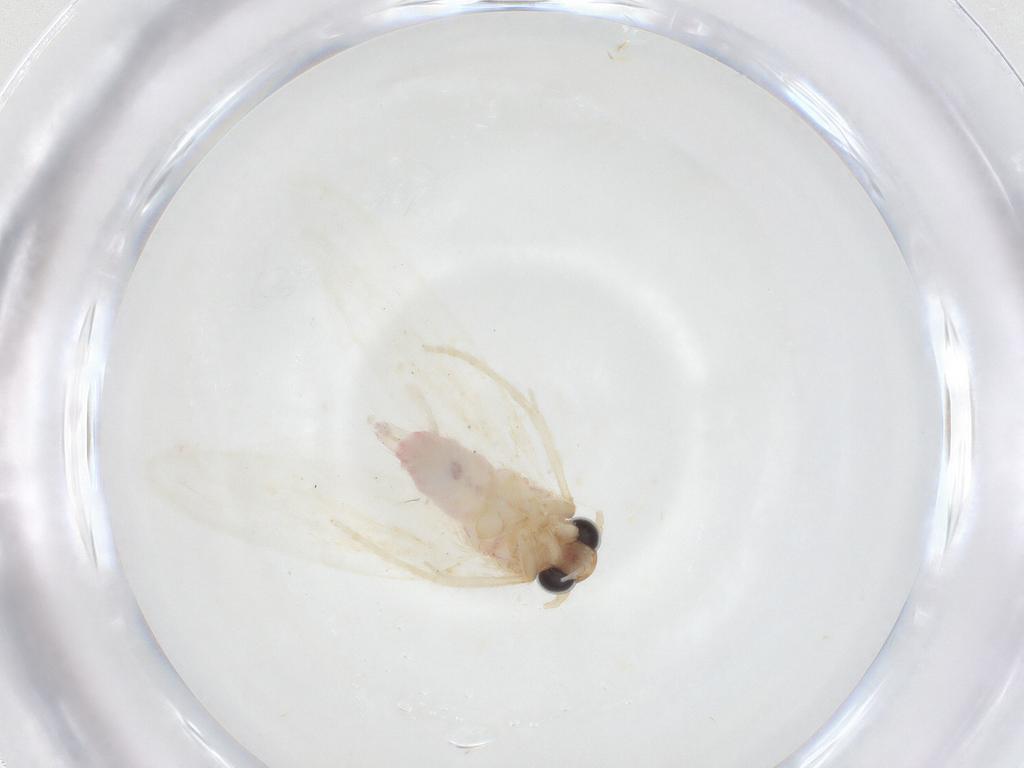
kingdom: Animalia
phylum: Arthropoda
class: Insecta
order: Lepidoptera
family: Autostichidae
